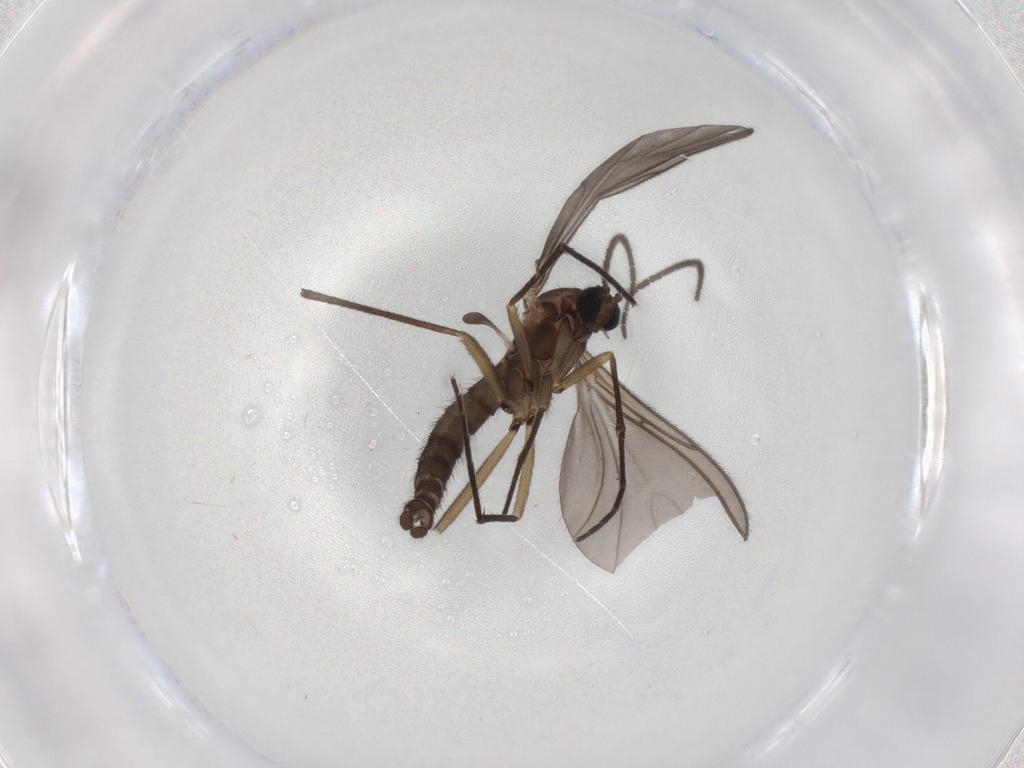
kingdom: Animalia
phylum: Arthropoda
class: Insecta
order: Diptera
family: Sciaridae
